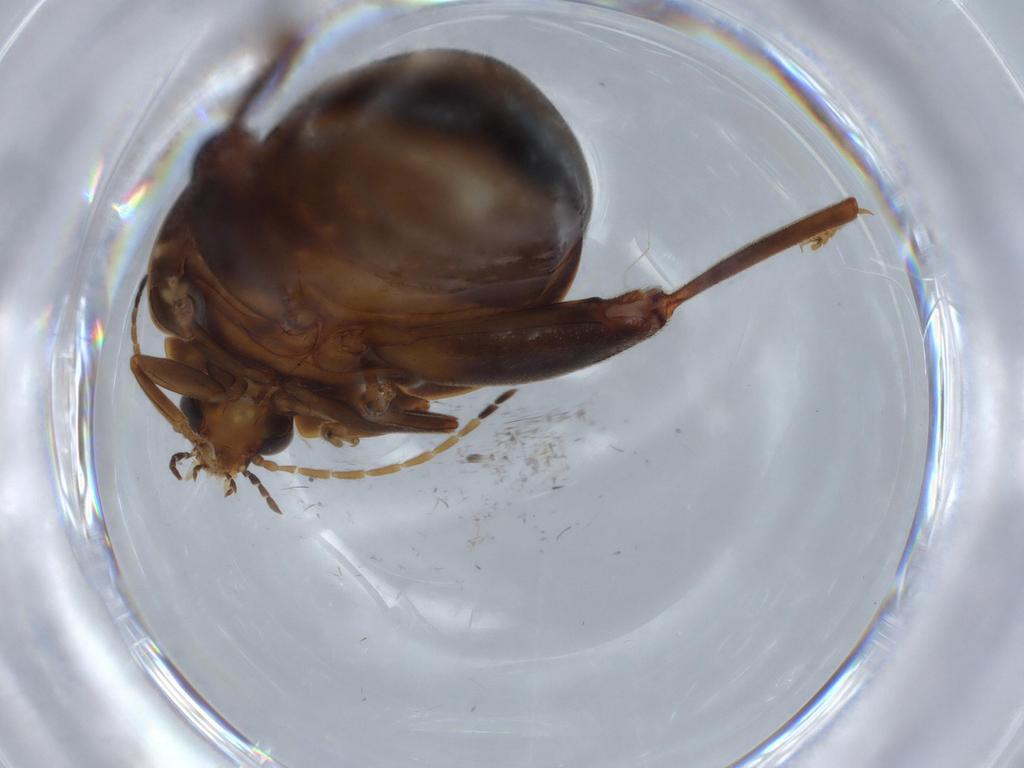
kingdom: Animalia
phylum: Arthropoda
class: Insecta
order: Coleoptera
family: Scirtidae
